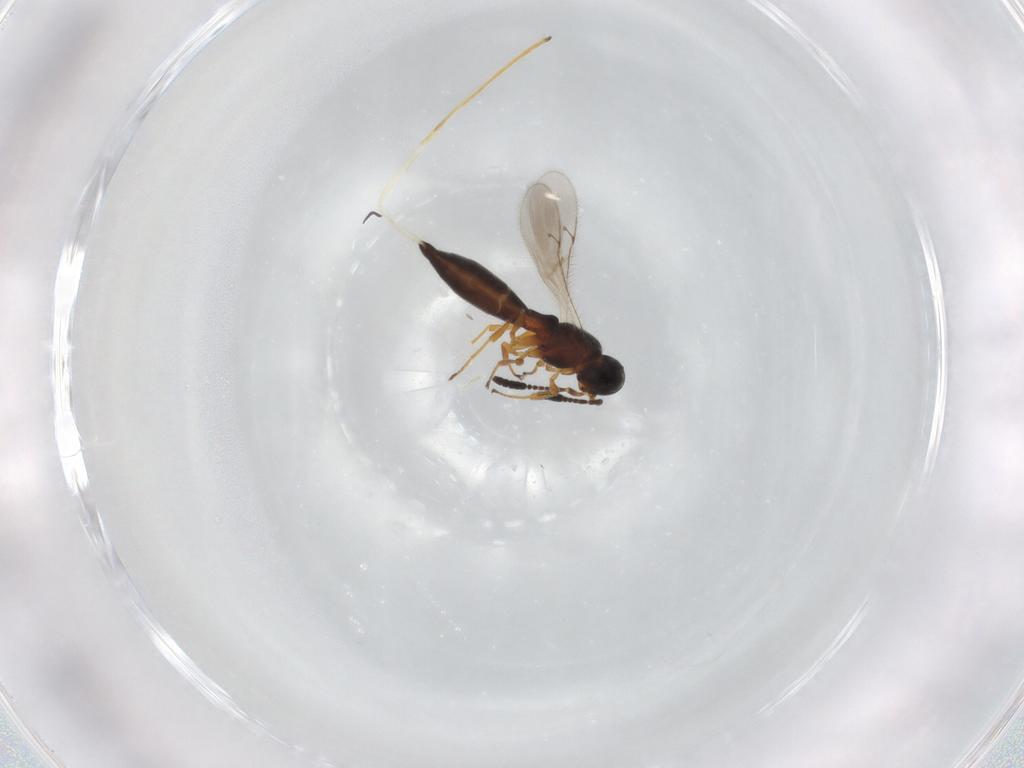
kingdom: Animalia
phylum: Arthropoda
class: Insecta
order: Hymenoptera
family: Scelionidae
